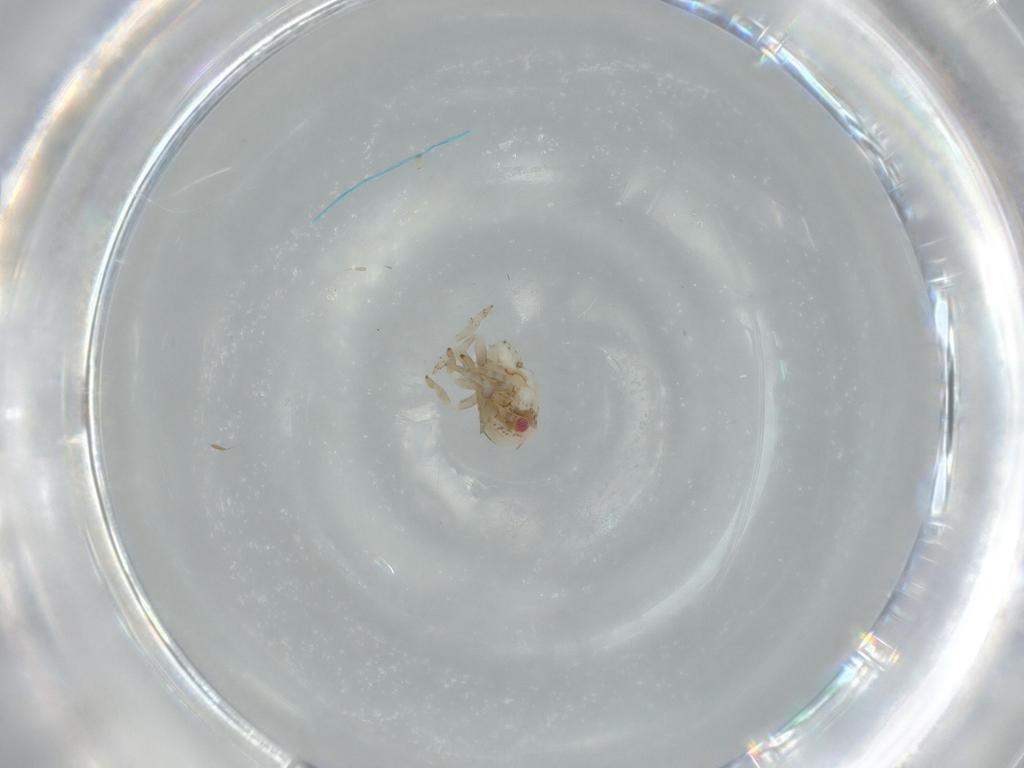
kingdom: Animalia
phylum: Arthropoda
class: Insecta
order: Hemiptera
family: Acanaloniidae
